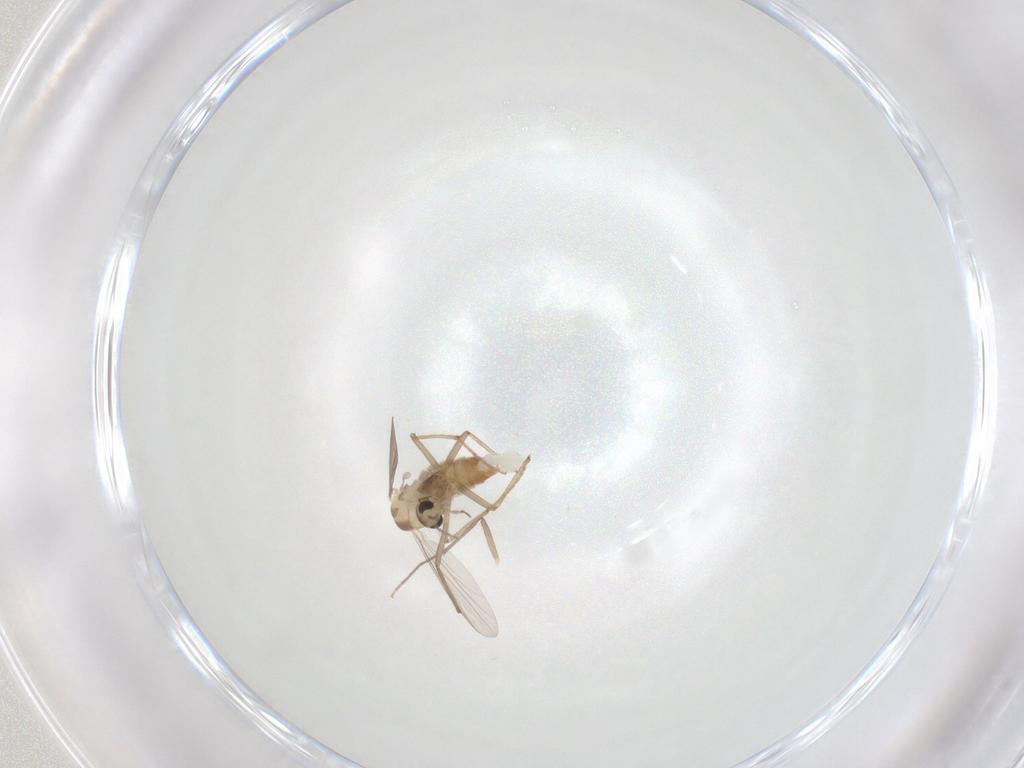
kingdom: Animalia
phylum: Arthropoda
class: Insecta
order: Diptera
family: Chironomidae
